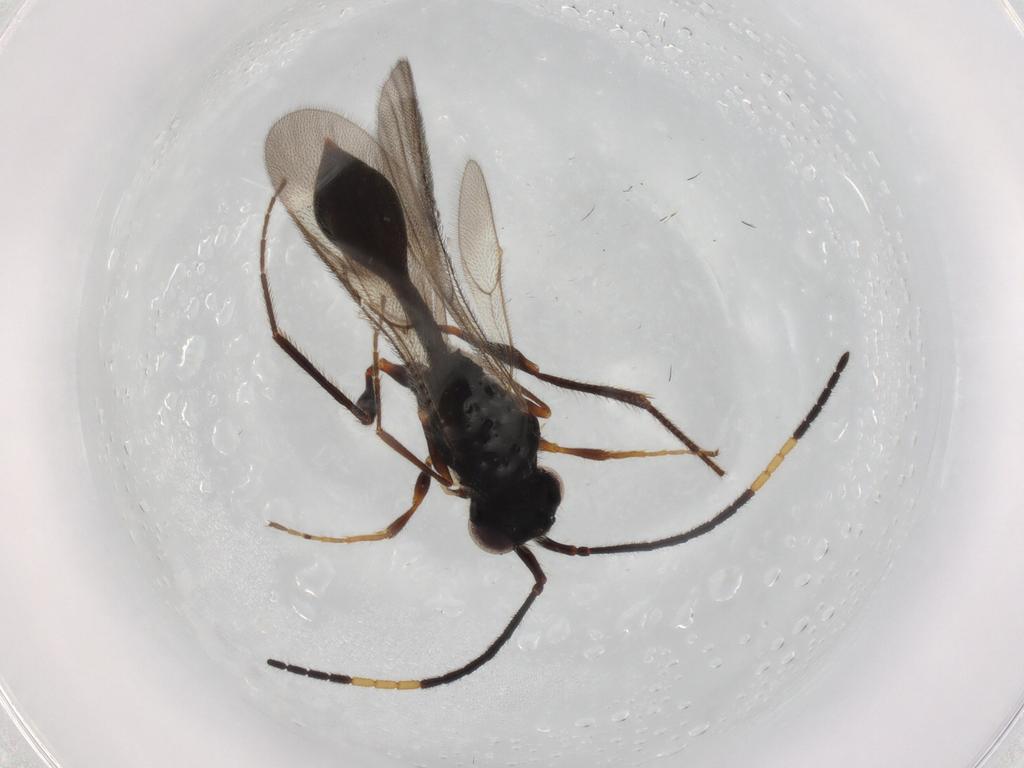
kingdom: Animalia
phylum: Arthropoda
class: Insecta
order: Hymenoptera
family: Diapriidae
